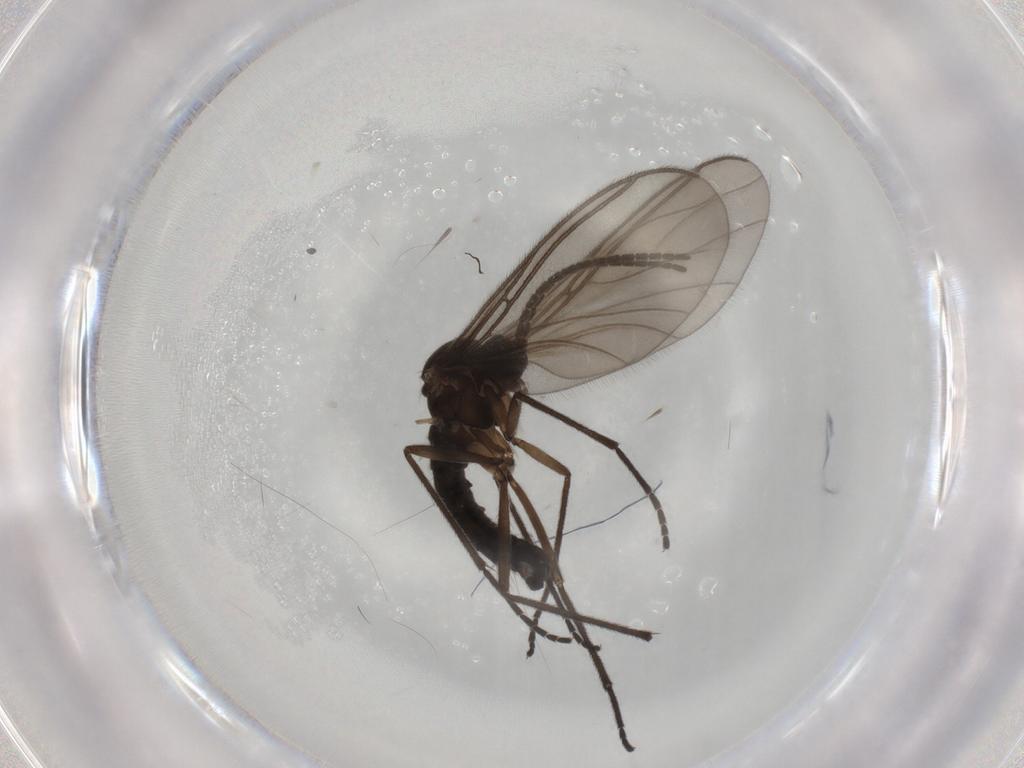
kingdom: Animalia
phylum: Arthropoda
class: Insecta
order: Diptera
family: Sciaridae
